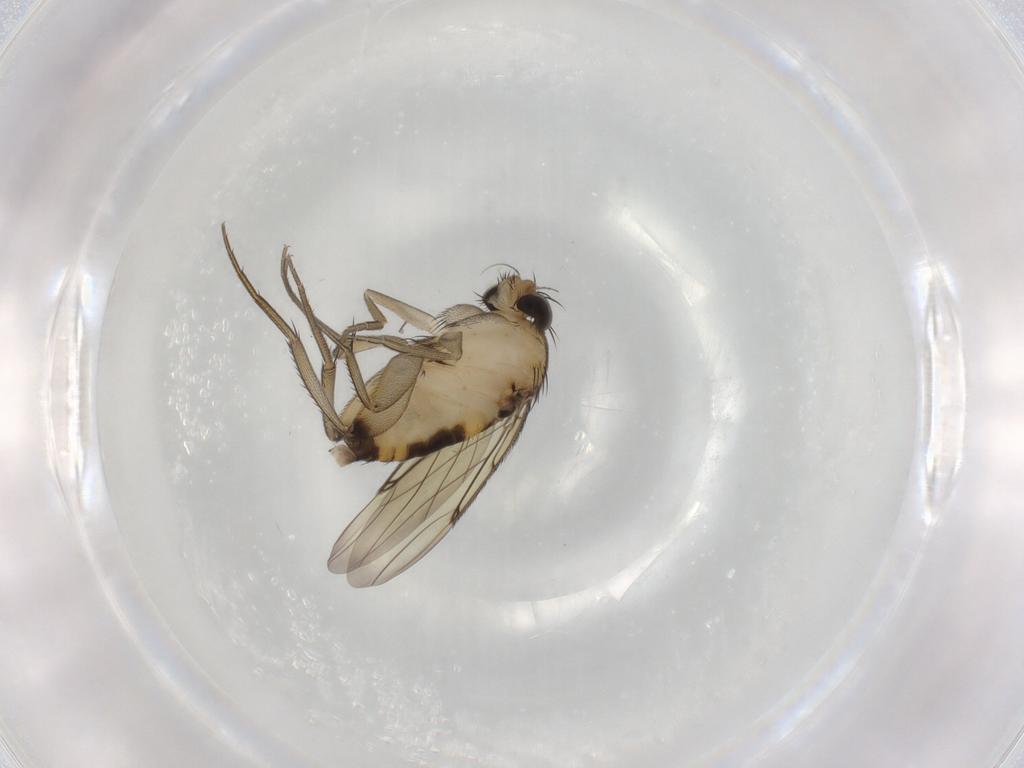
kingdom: Animalia
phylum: Arthropoda
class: Insecta
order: Diptera
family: Phoridae
